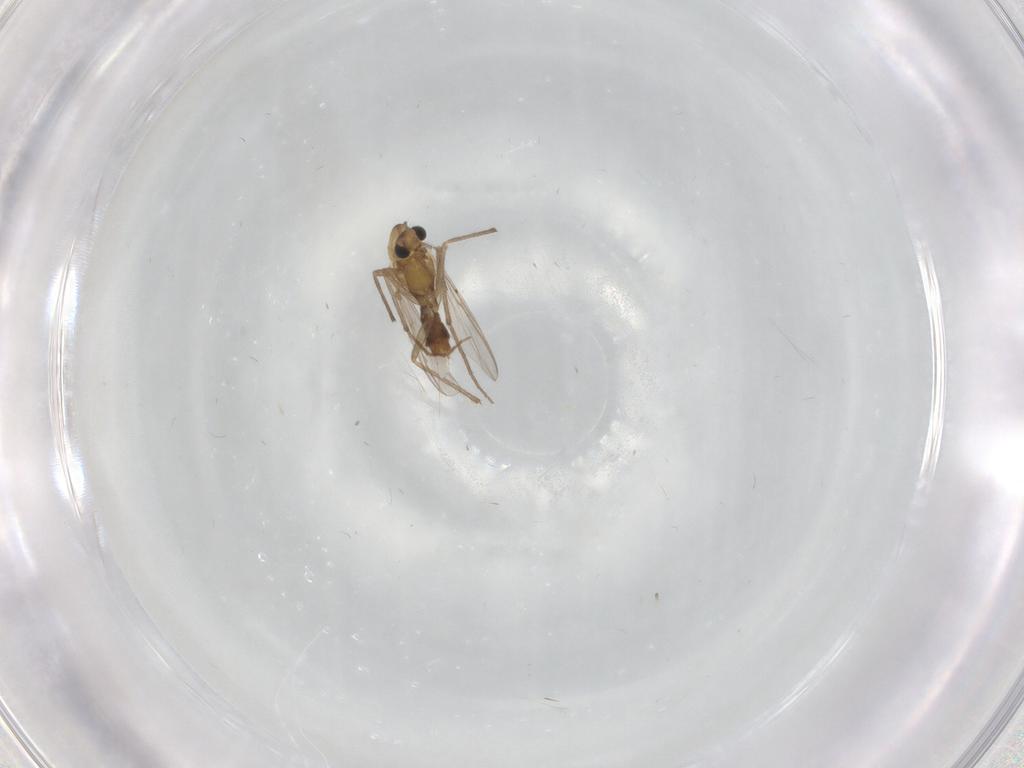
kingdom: Animalia
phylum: Arthropoda
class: Insecta
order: Diptera
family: Chironomidae
